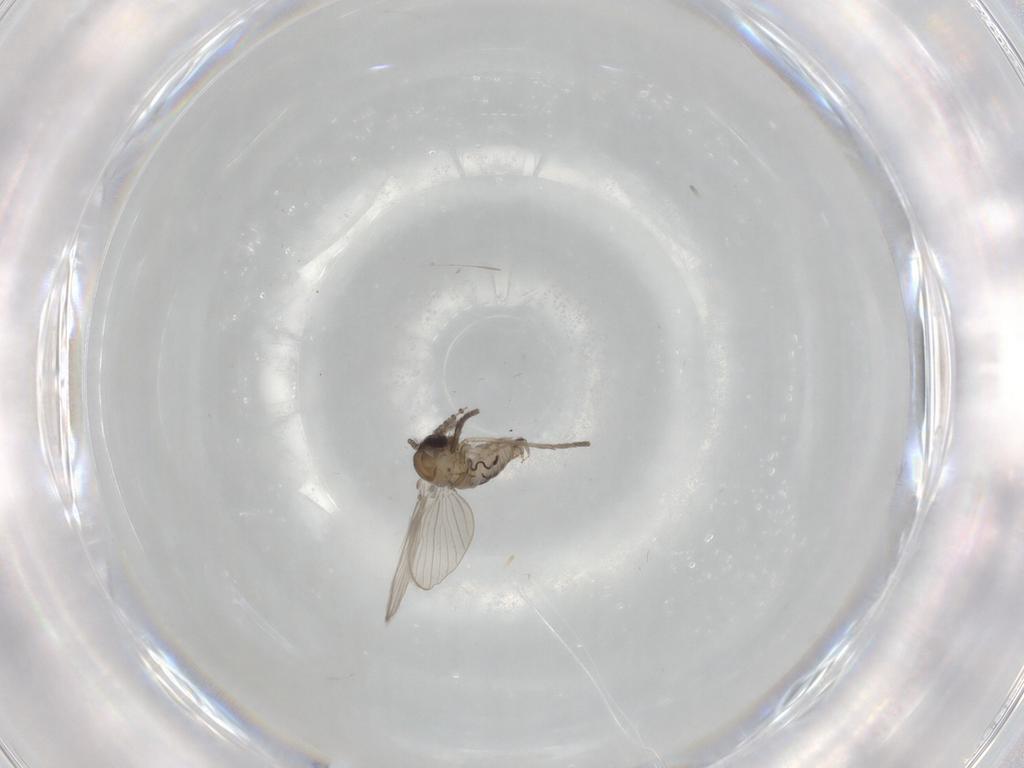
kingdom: Animalia
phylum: Arthropoda
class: Insecta
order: Diptera
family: Psychodidae
